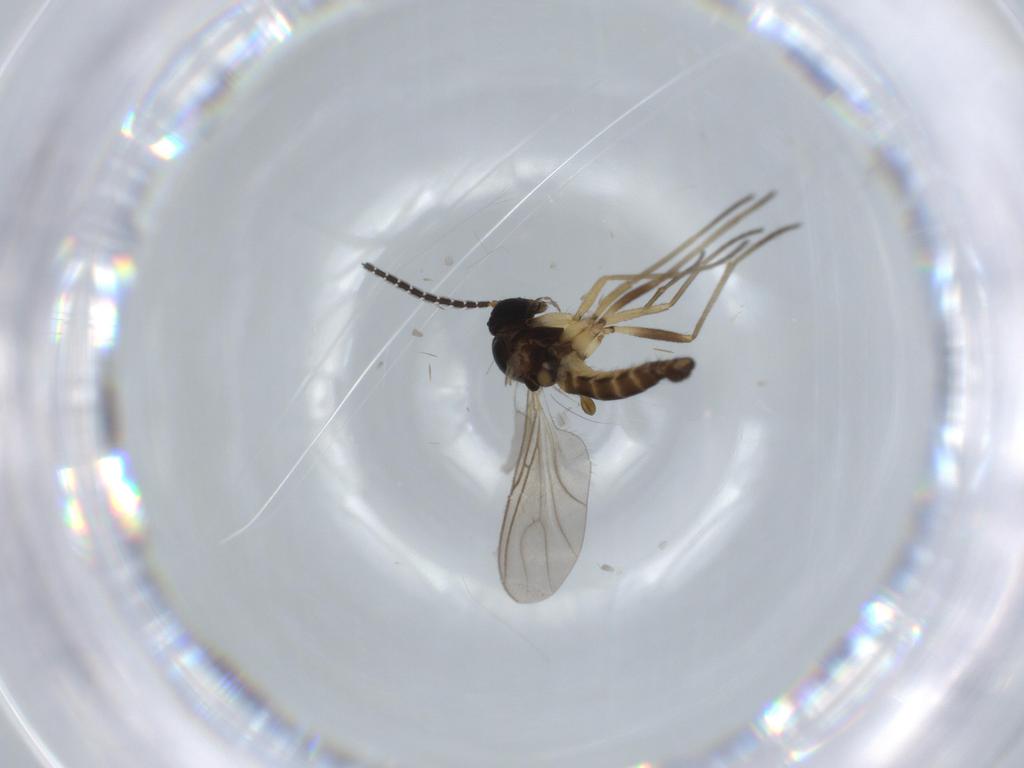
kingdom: Animalia
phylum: Arthropoda
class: Insecta
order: Diptera
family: Sciaridae
